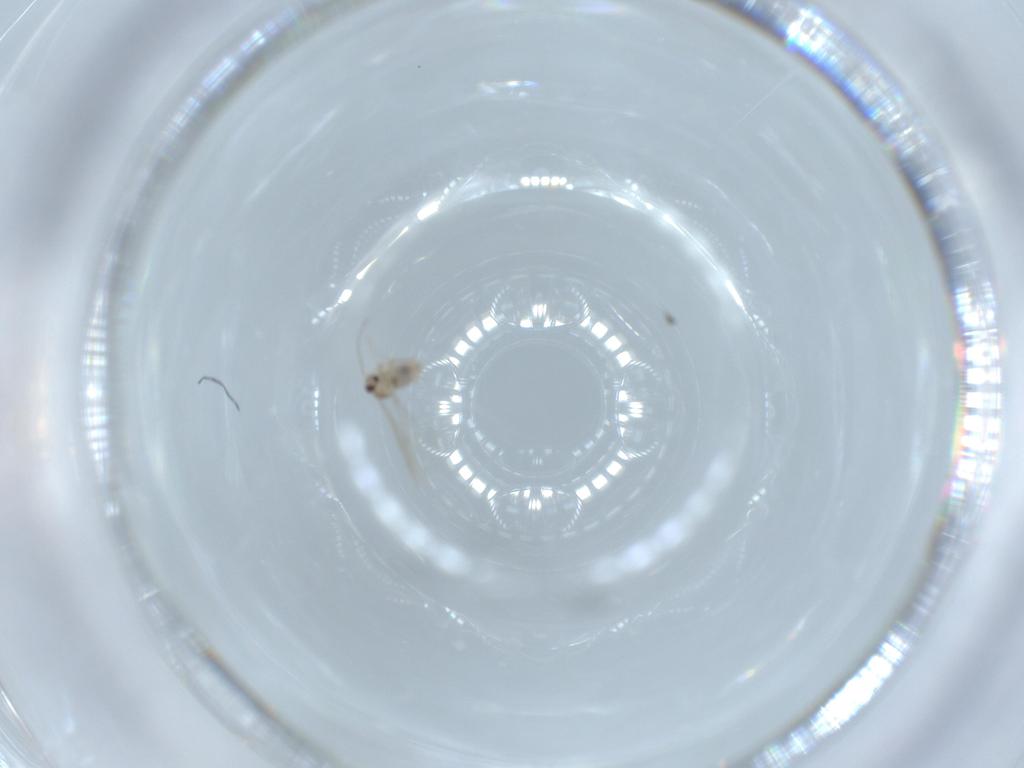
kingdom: Animalia
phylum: Arthropoda
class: Insecta
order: Diptera
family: Cecidomyiidae
